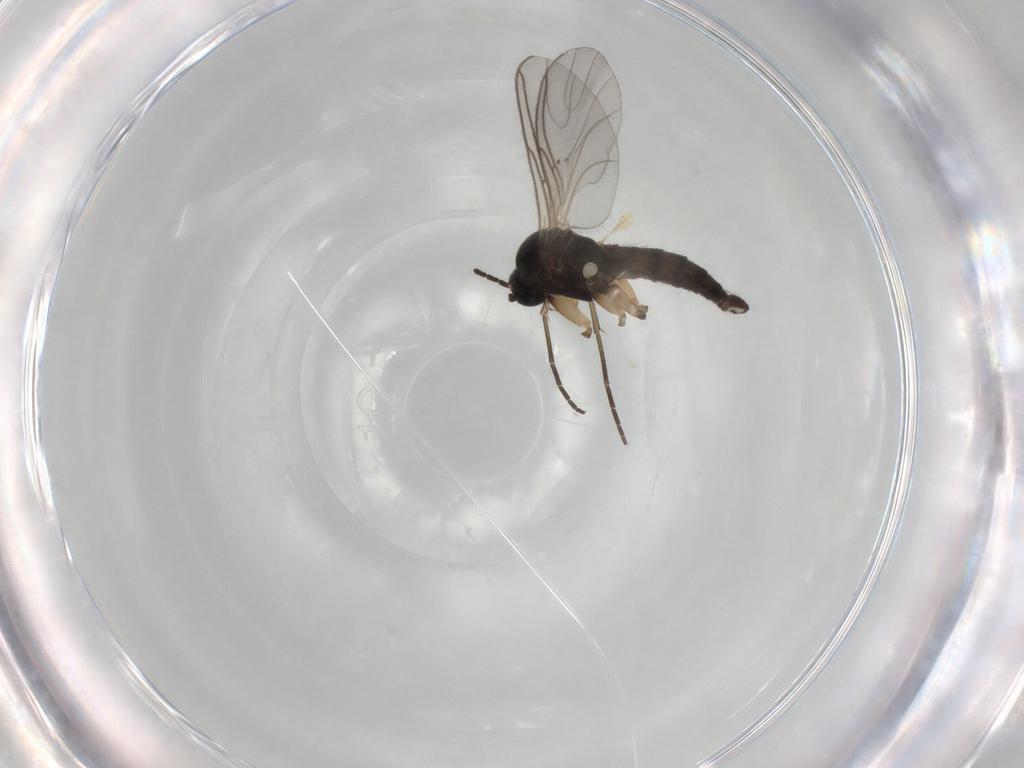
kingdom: Animalia
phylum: Arthropoda
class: Insecta
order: Diptera
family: Sciaridae
